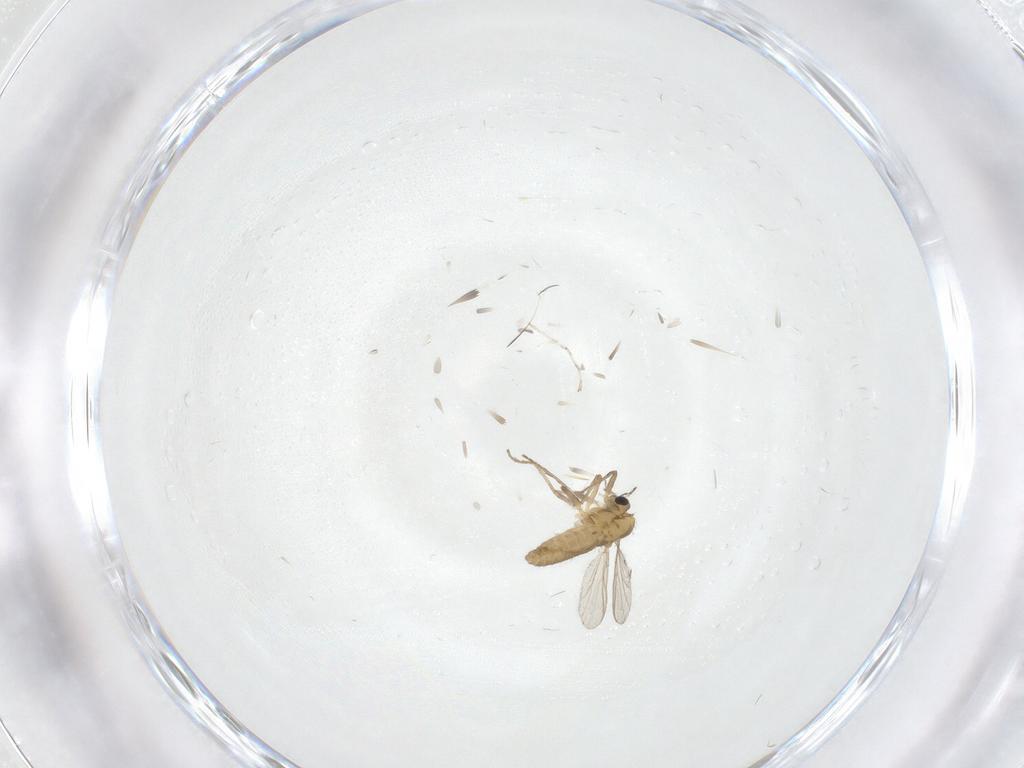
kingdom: Animalia
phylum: Arthropoda
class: Insecta
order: Diptera
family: Chironomidae
